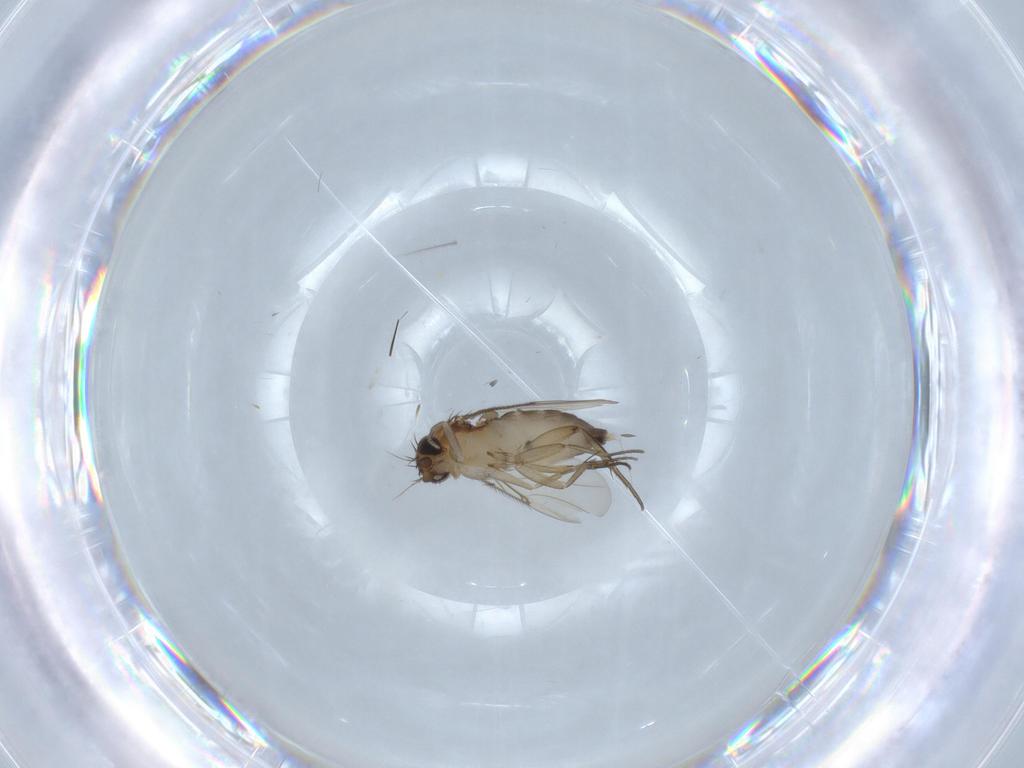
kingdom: Animalia
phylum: Arthropoda
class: Insecta
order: Diptera
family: Phoridae
